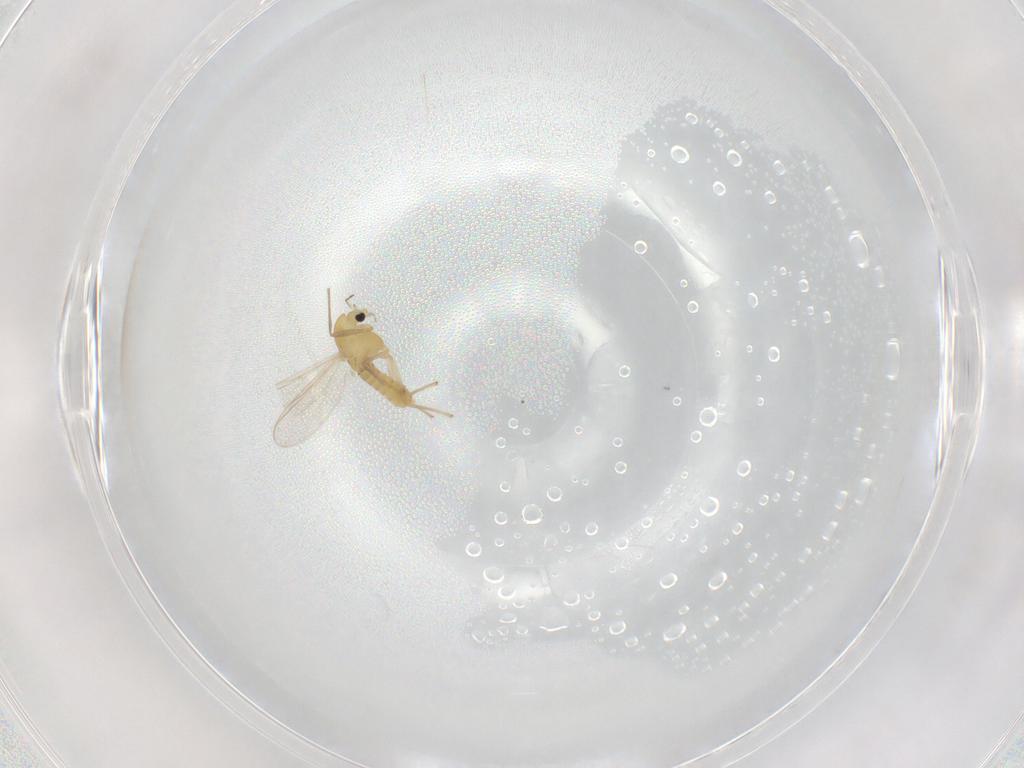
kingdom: Animalia
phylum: Arthropoda
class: Insecta
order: Diptera
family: Chironomidae
